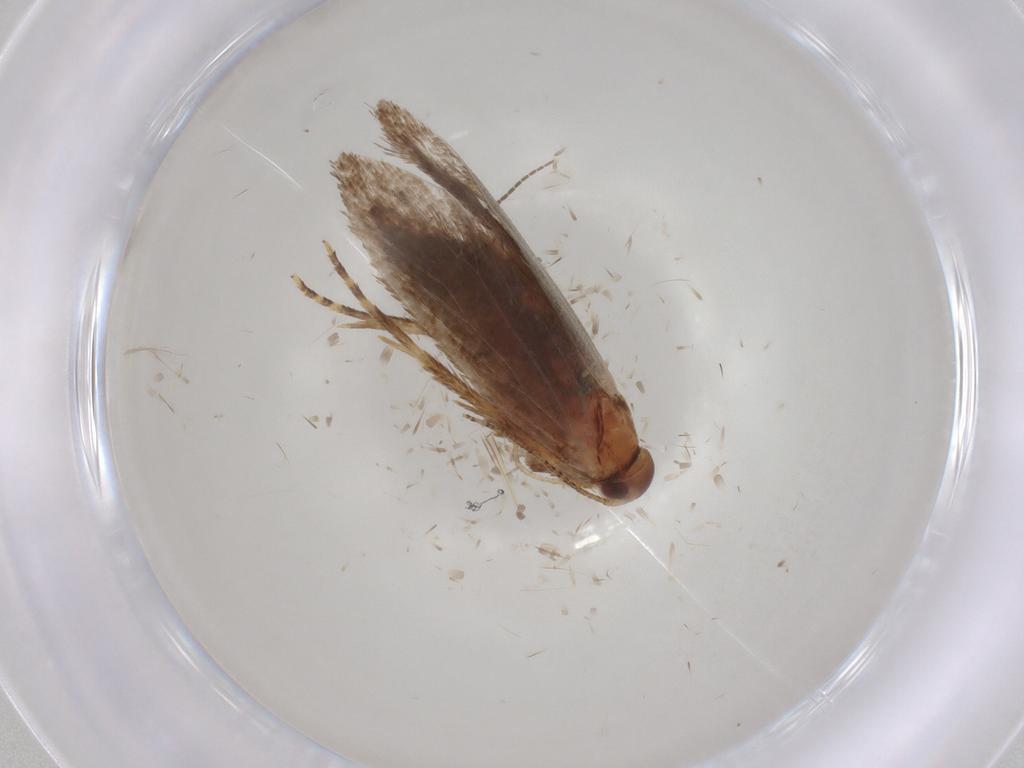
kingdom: Animalia
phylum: Arthropoda
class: Insecta
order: Lepidoptera
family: Oecophoridae
